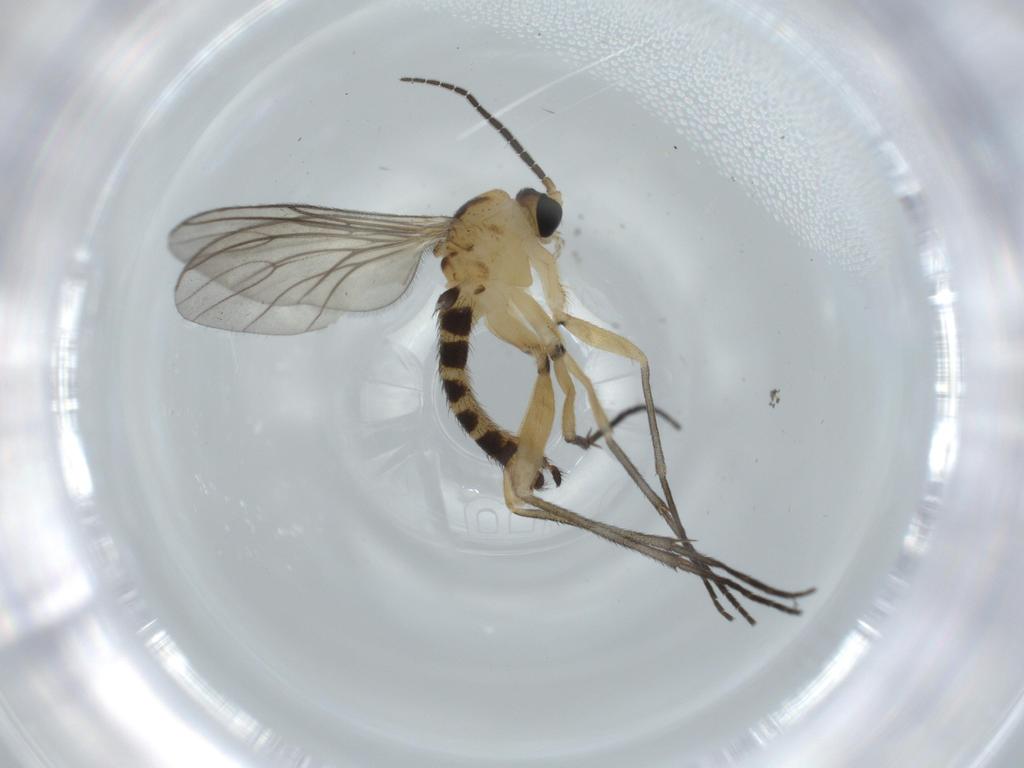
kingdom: Animalia
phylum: Arthropoda
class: Insecta
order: Diptera
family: Sciaridae
